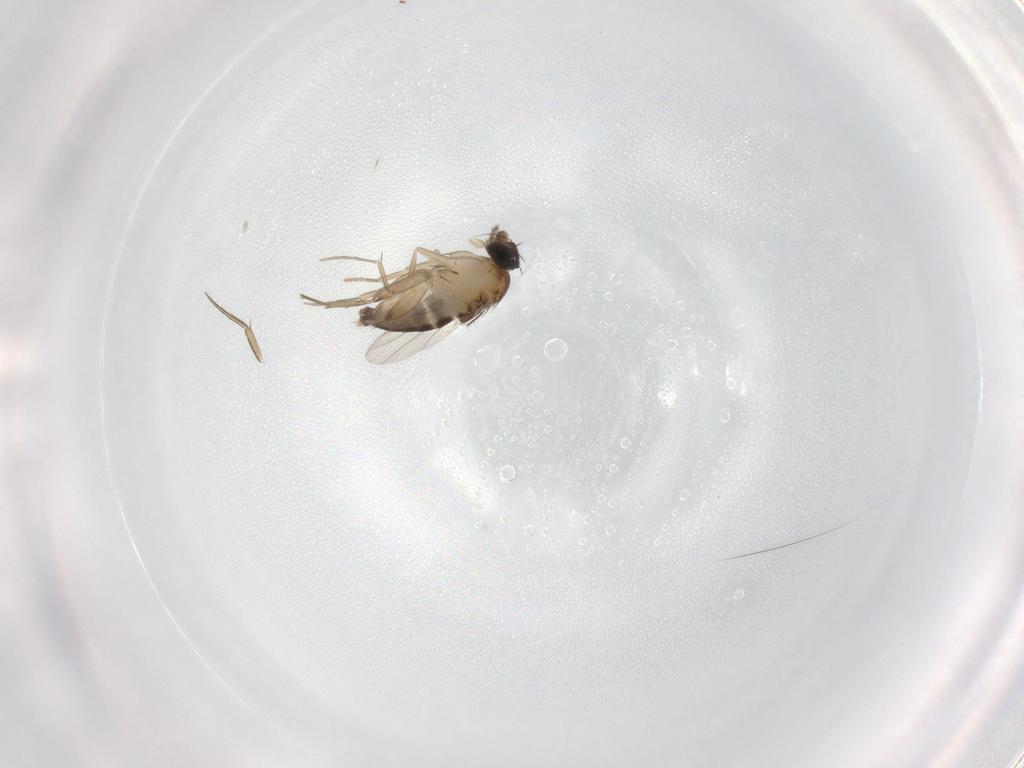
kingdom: Animalia
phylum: Arthropoda
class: Insecta
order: Diptera
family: Phoridae
